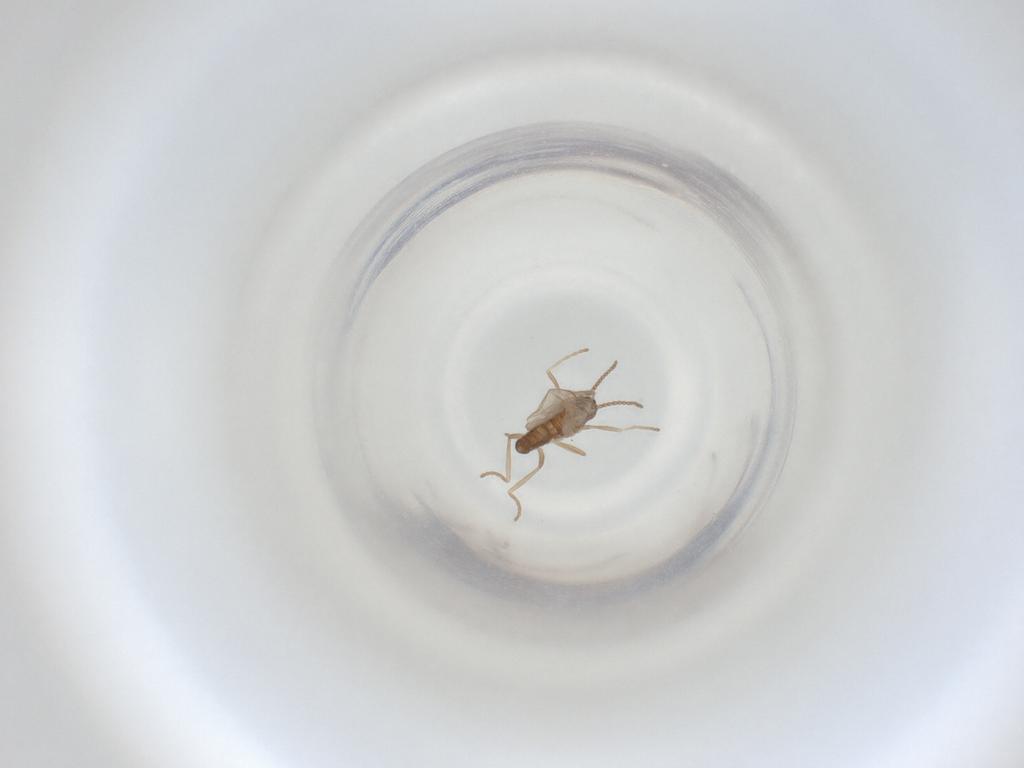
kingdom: Animalia
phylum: Arthropoda
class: Insecta
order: Diptera
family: Cecidomyiidae
